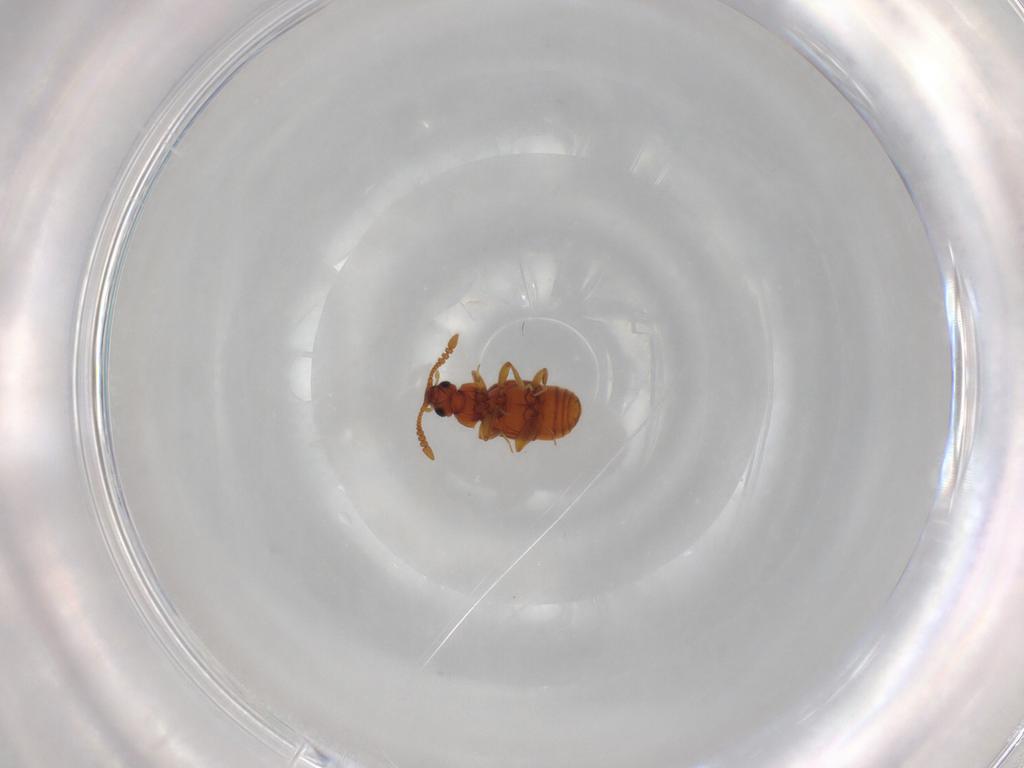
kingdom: Animalia
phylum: Arthropoda
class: Insecta
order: Coleoptera
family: Staphylinidae
